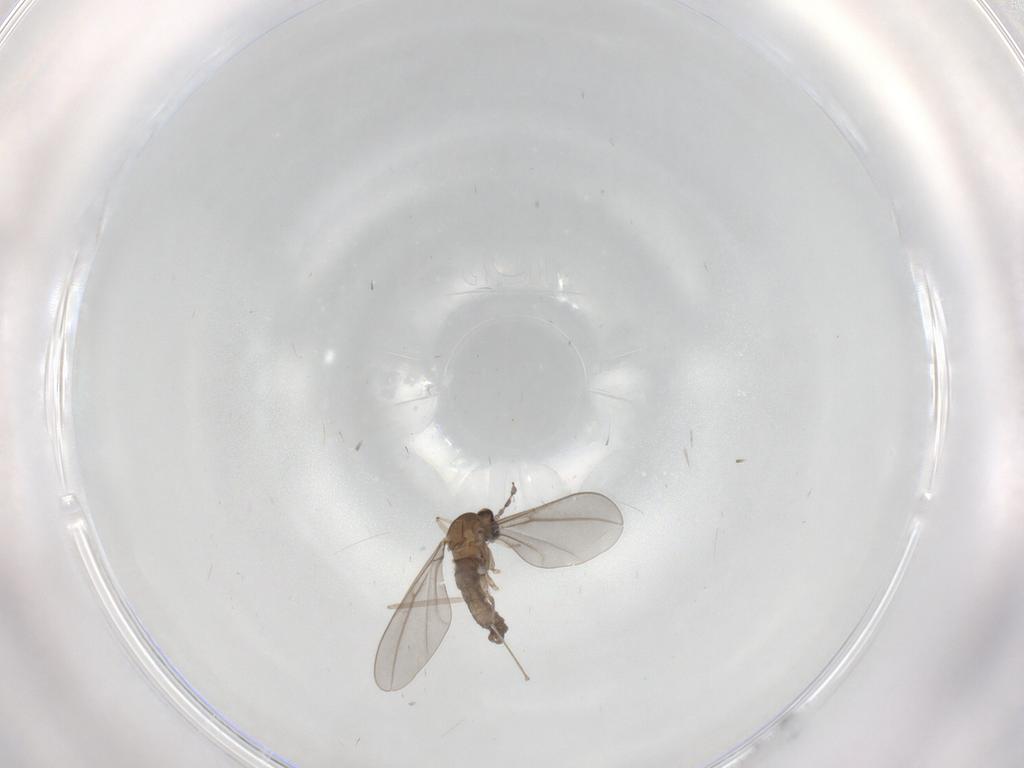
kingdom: Animalia
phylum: Arthropoda
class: Insecta
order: Diptera
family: Cecidomyiidae
